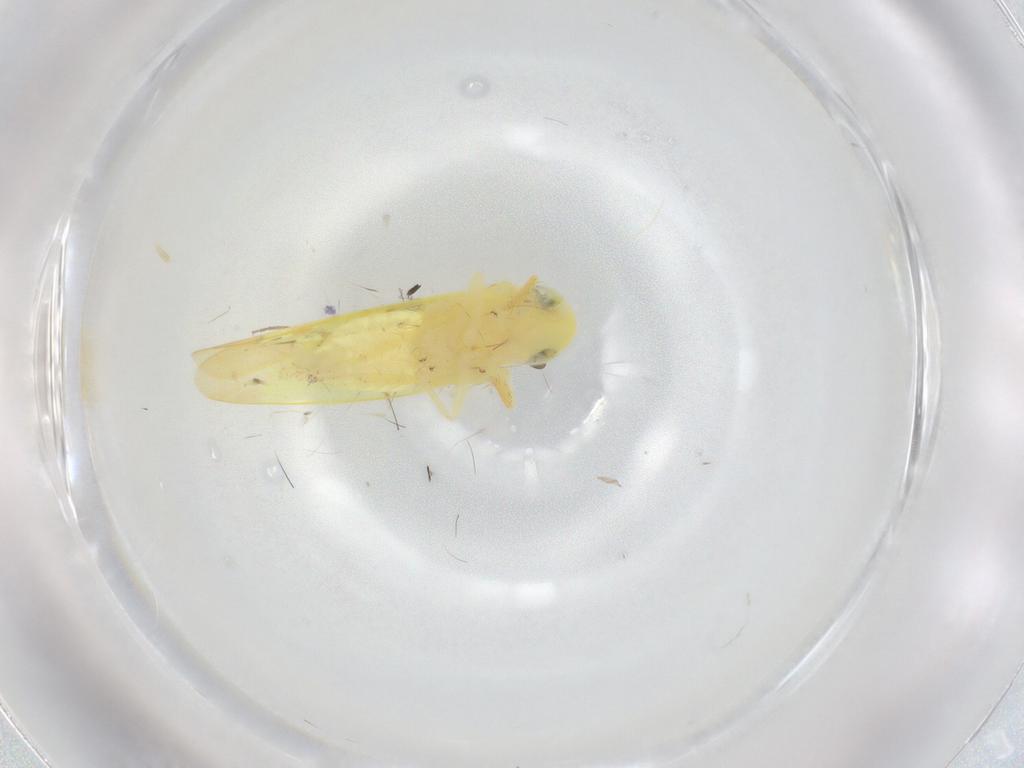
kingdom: Animalia
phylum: Arthropoda
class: Insecta
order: Hemiptera
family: Cicadellidae
